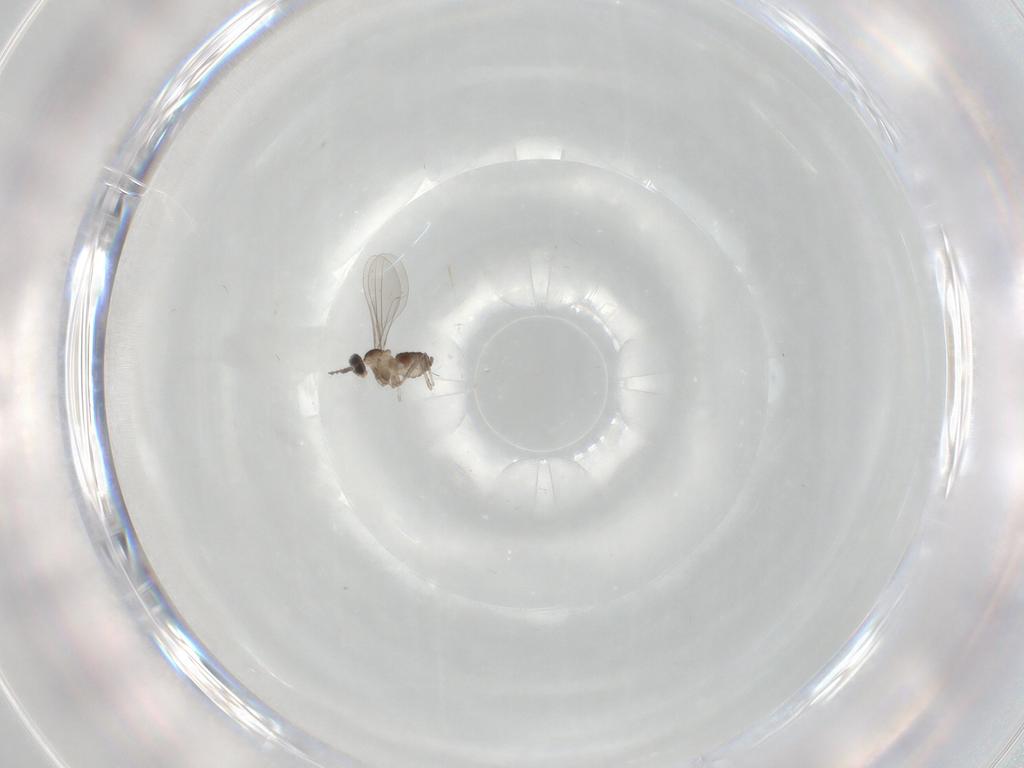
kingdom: Animalia
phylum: Arthropoda
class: Insecta
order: Diptera
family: Cecidomyiidae
